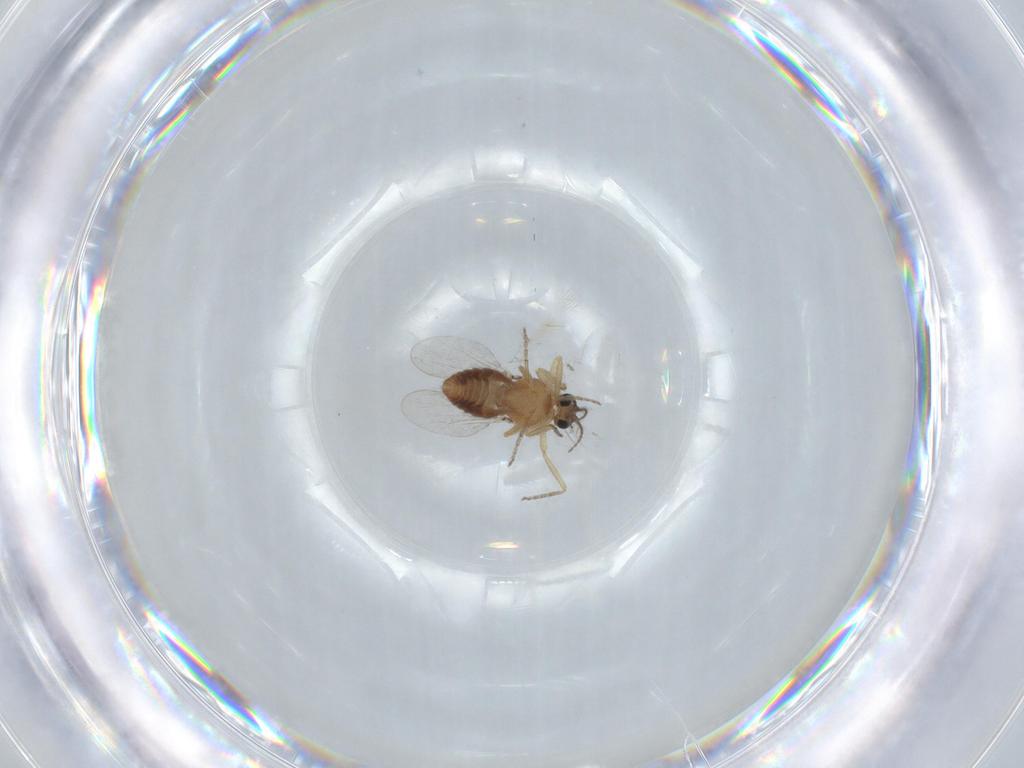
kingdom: Animalia
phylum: Arthropoda
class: Insecta
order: Diptera
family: Ceratopogonidae
